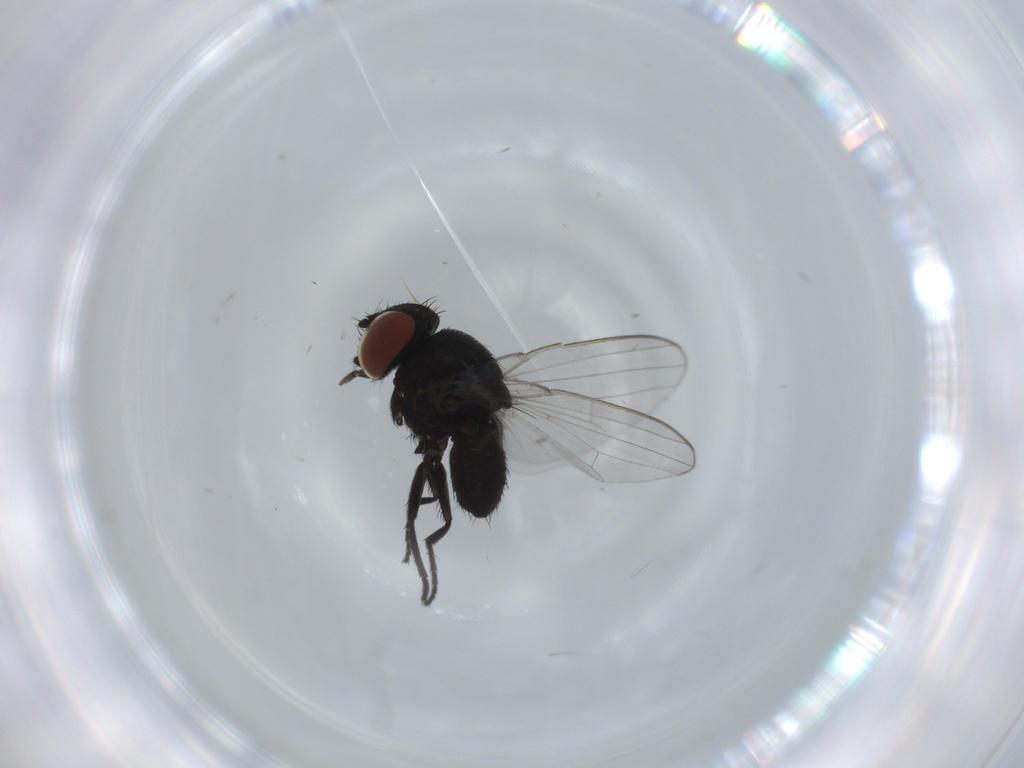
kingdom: Animalia
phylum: Arthropoda
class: Insecta
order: Diptera
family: Milichiidae
